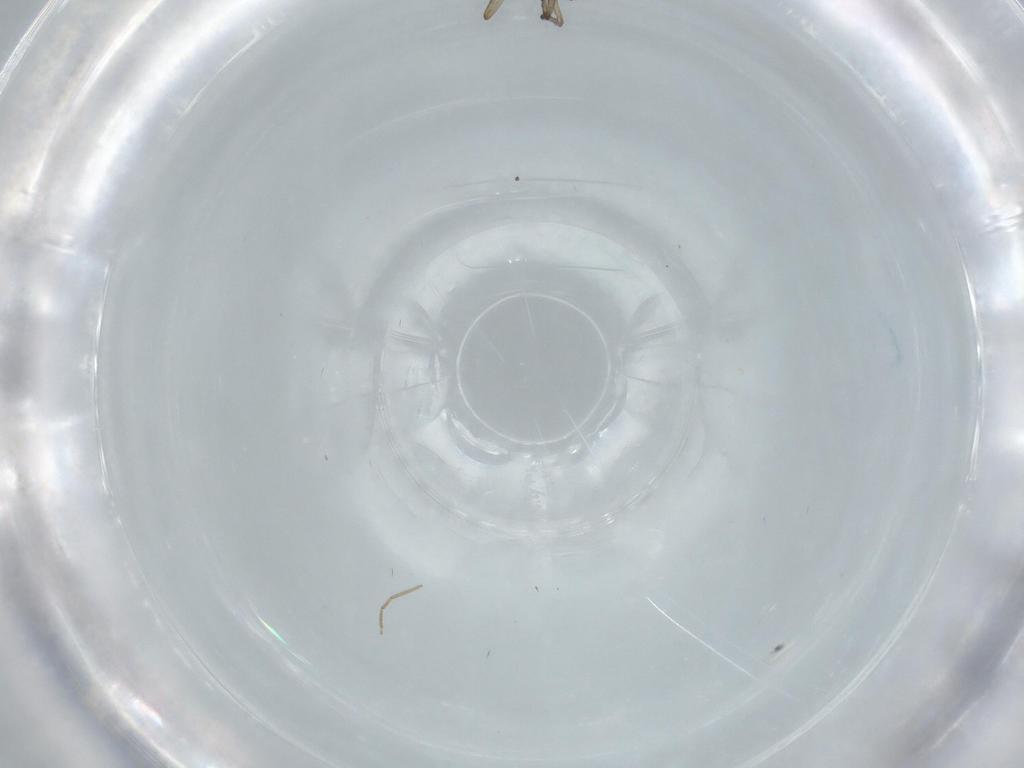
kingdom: Animalia
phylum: Arthropoda
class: Insecta
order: Diptera
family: Chironomidae
